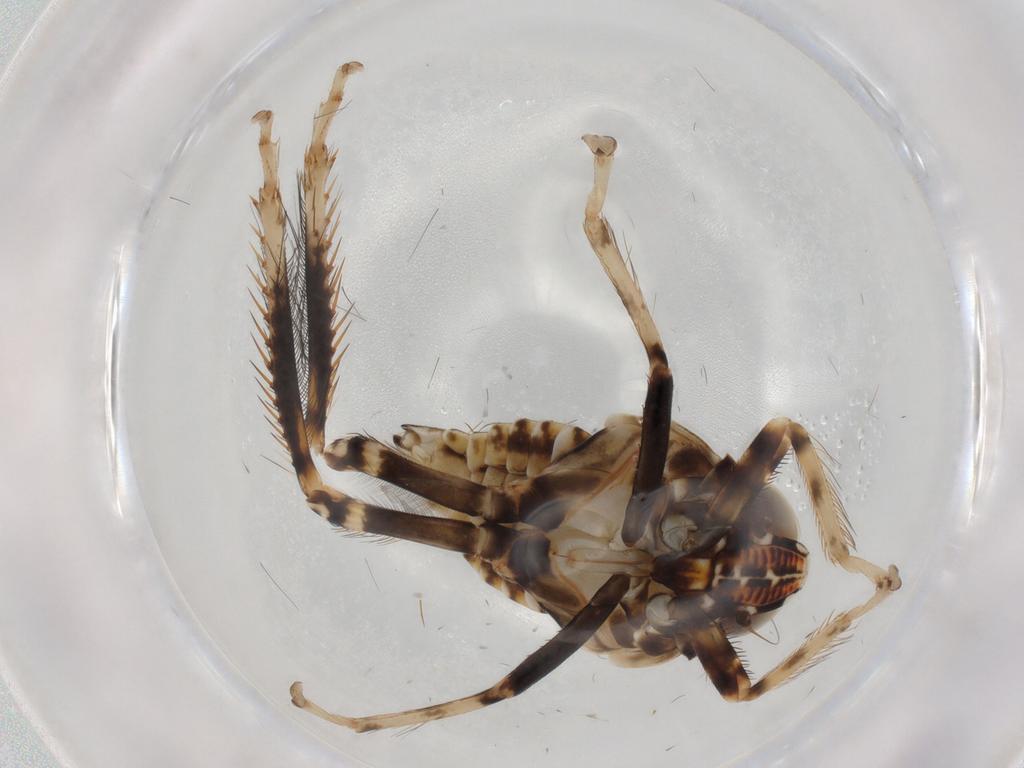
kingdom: Animalia
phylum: Arthropoda
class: Insecta
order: Hemiptera
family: Cicadellidae
